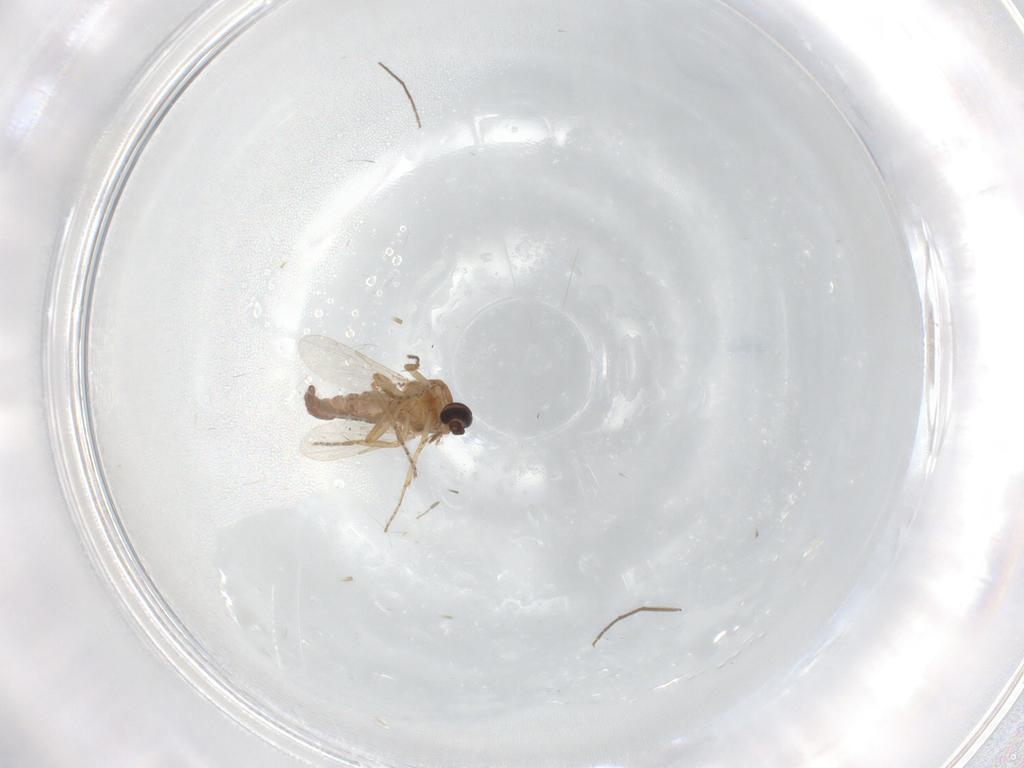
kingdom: Animalia
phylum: Arthropoda
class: Insecta
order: Diptera
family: Ceratopogonidae
